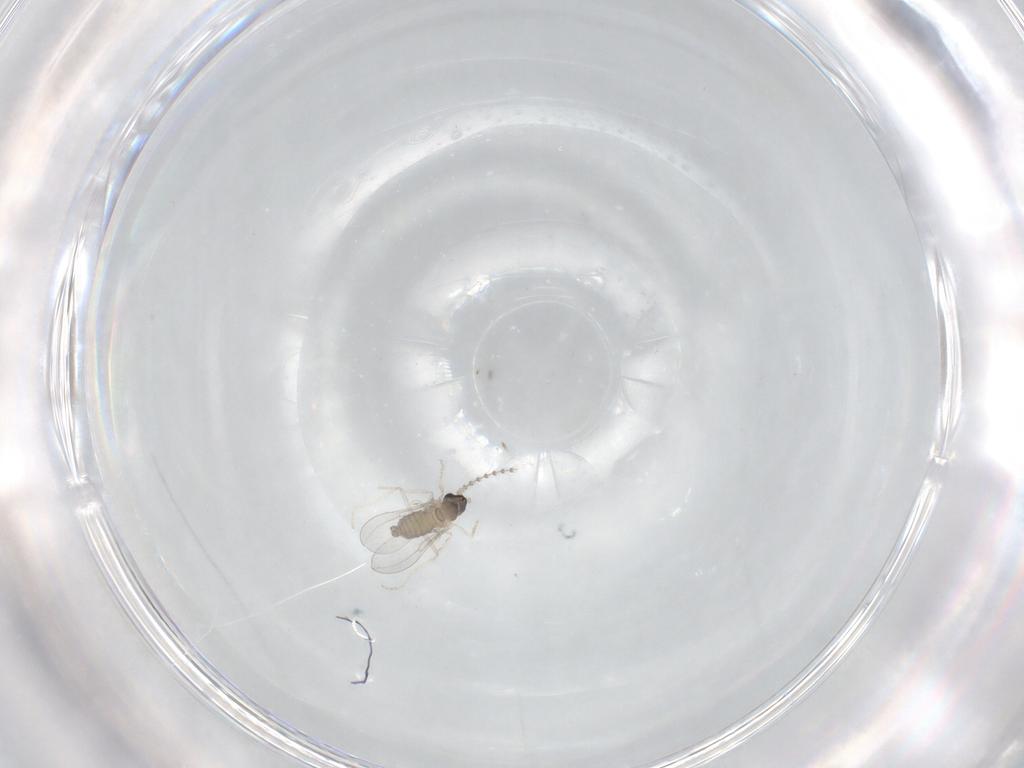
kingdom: Animalia
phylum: Arthropoda
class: Insecta
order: Diptera
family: Cecidomyiidae
